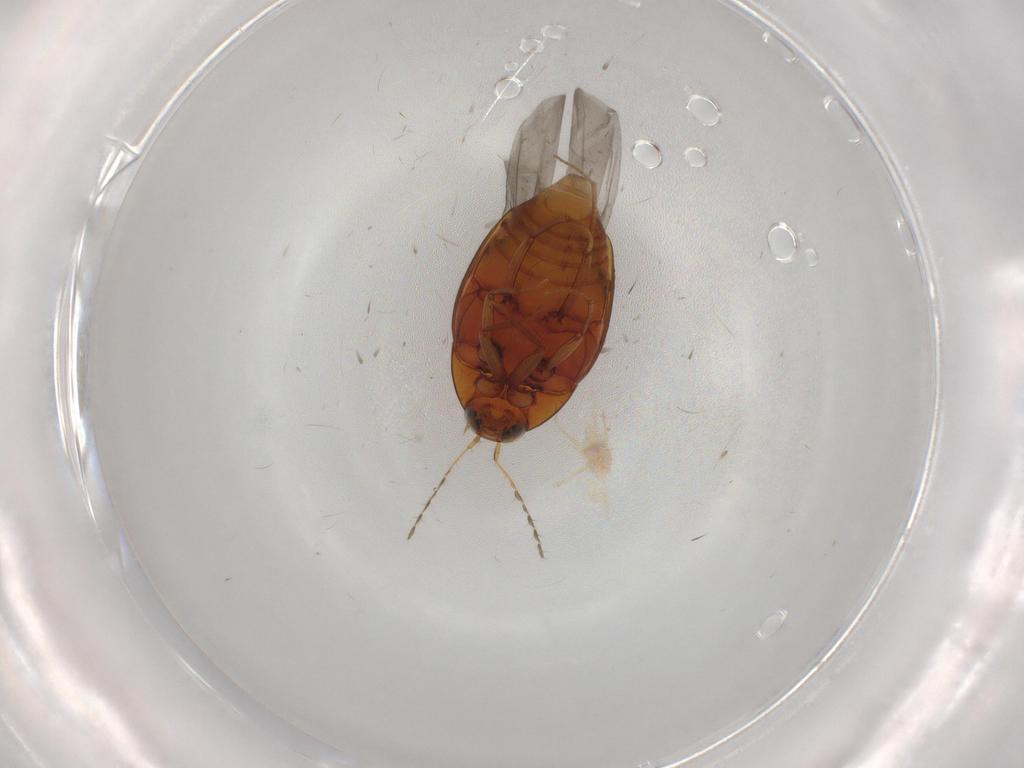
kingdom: Animalia
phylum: Arthropoda
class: Insecta
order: Coleoptera
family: Staphylinidae
